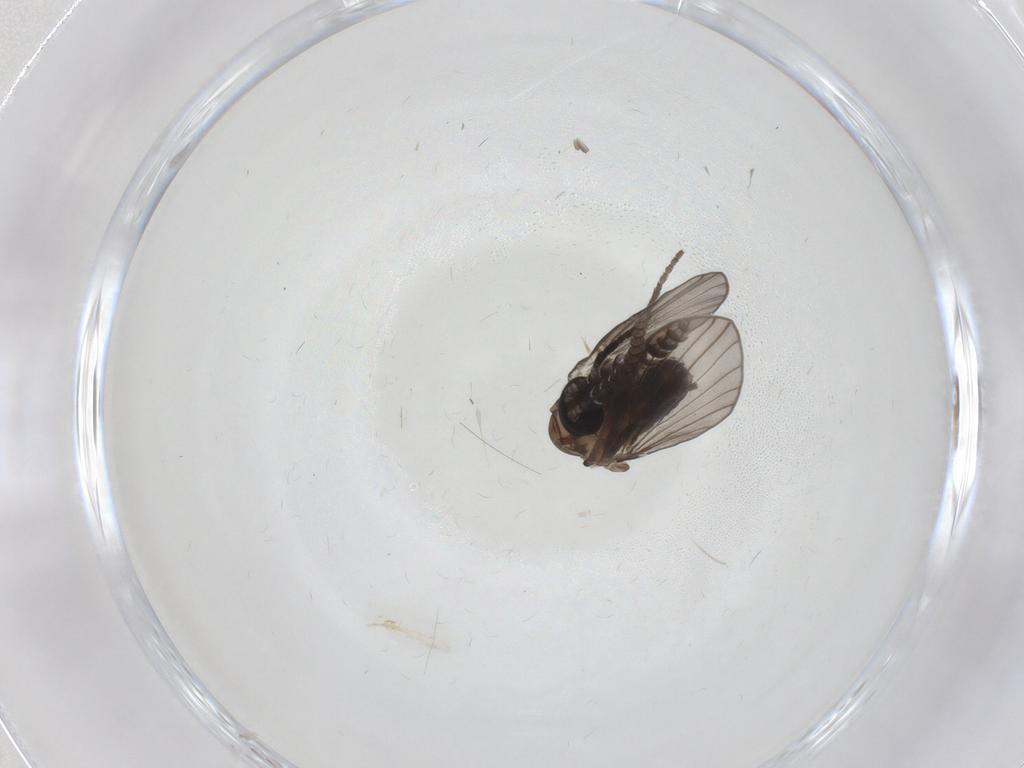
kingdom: Animalia
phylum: Arthropoda
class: Insecta
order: Diptera
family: Psychodidae
